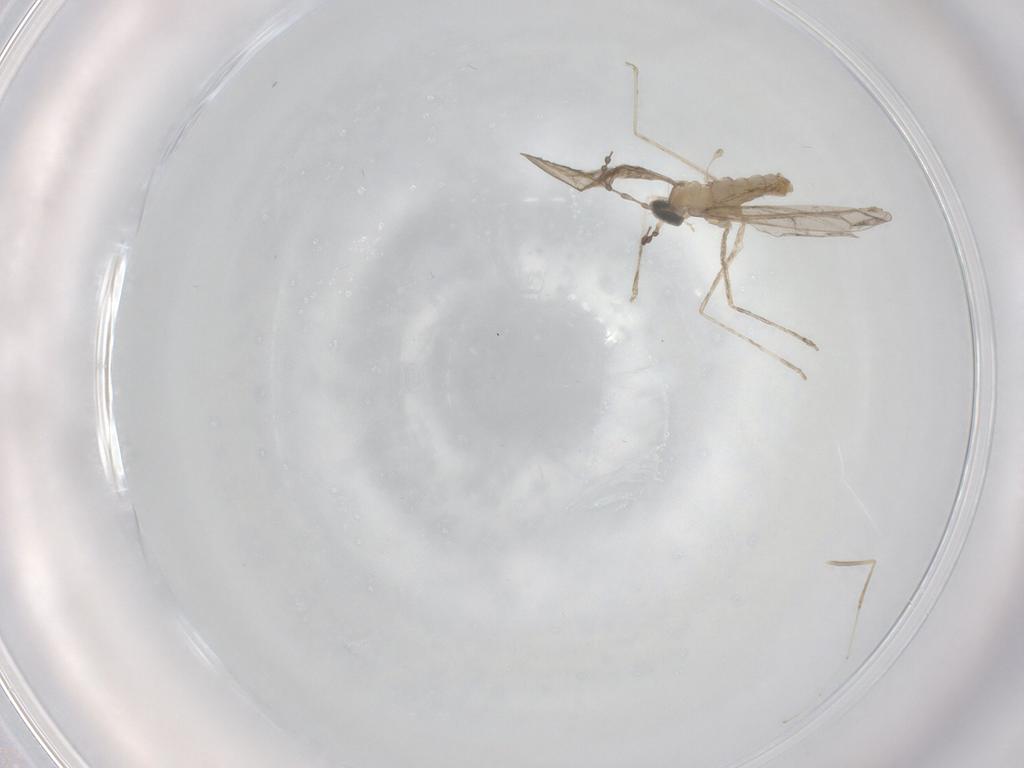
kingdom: Animalia
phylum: Arthropoda
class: Insecta
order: Diptera
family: Cecidomyiidae
